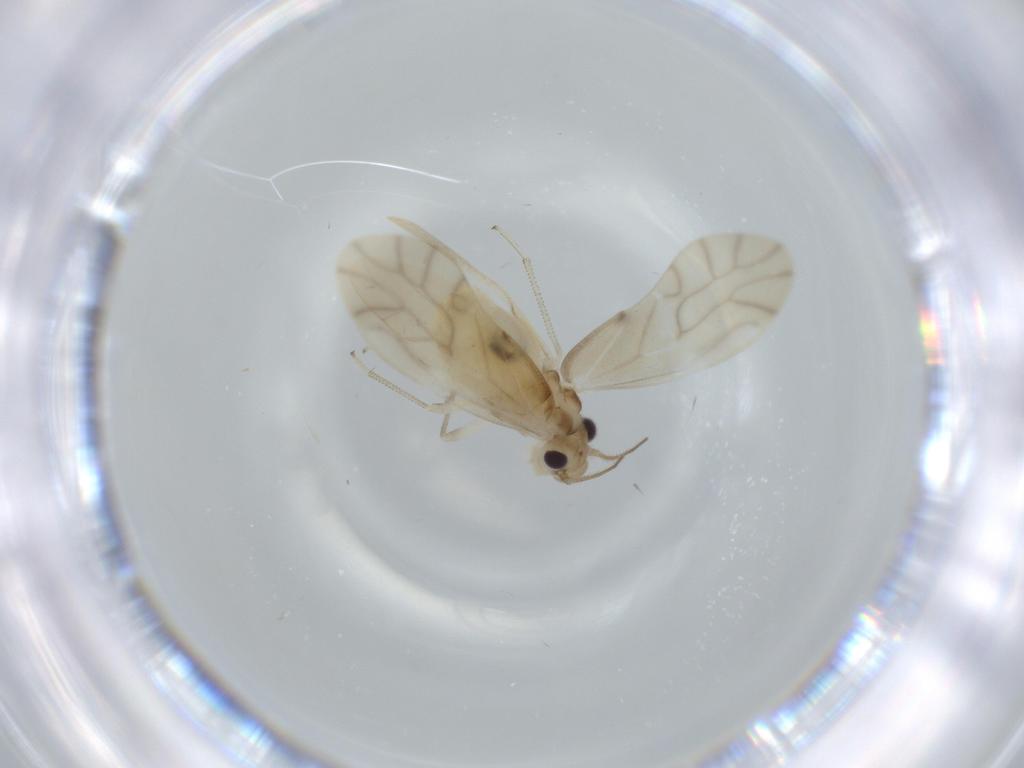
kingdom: Animalia
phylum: Arthropoda
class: Insecta
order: Psocodea
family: Caeciliusidae
